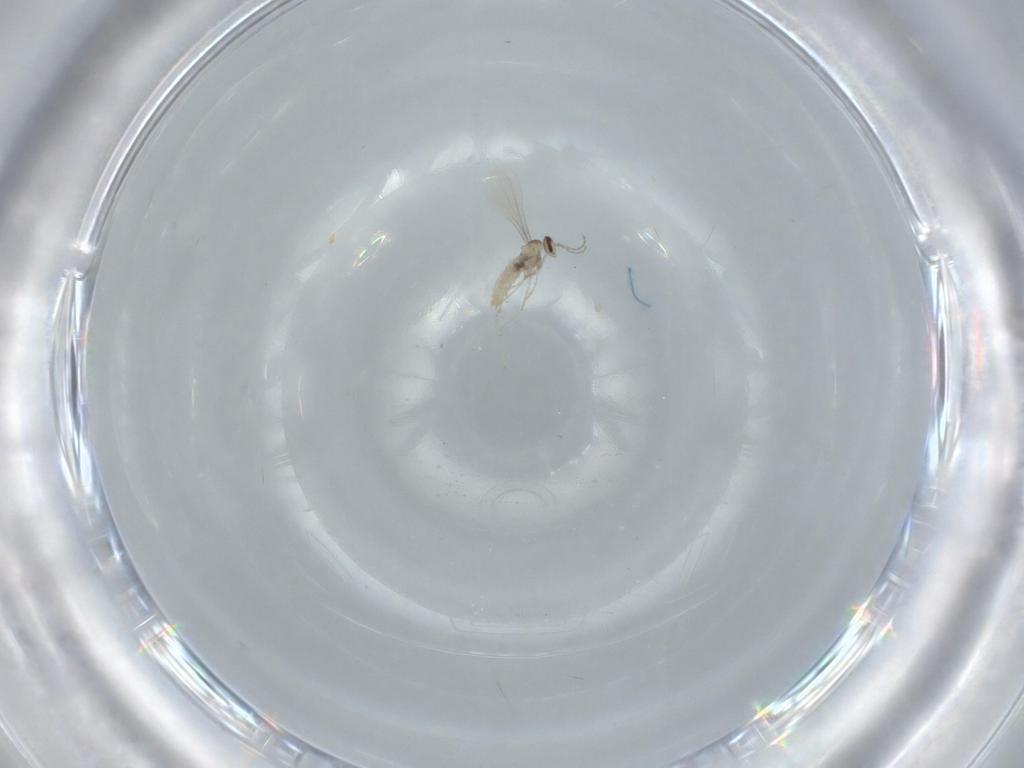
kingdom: Animalia
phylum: Arthropoda
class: Insecta
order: Diptera
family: Cecidomyiidae
